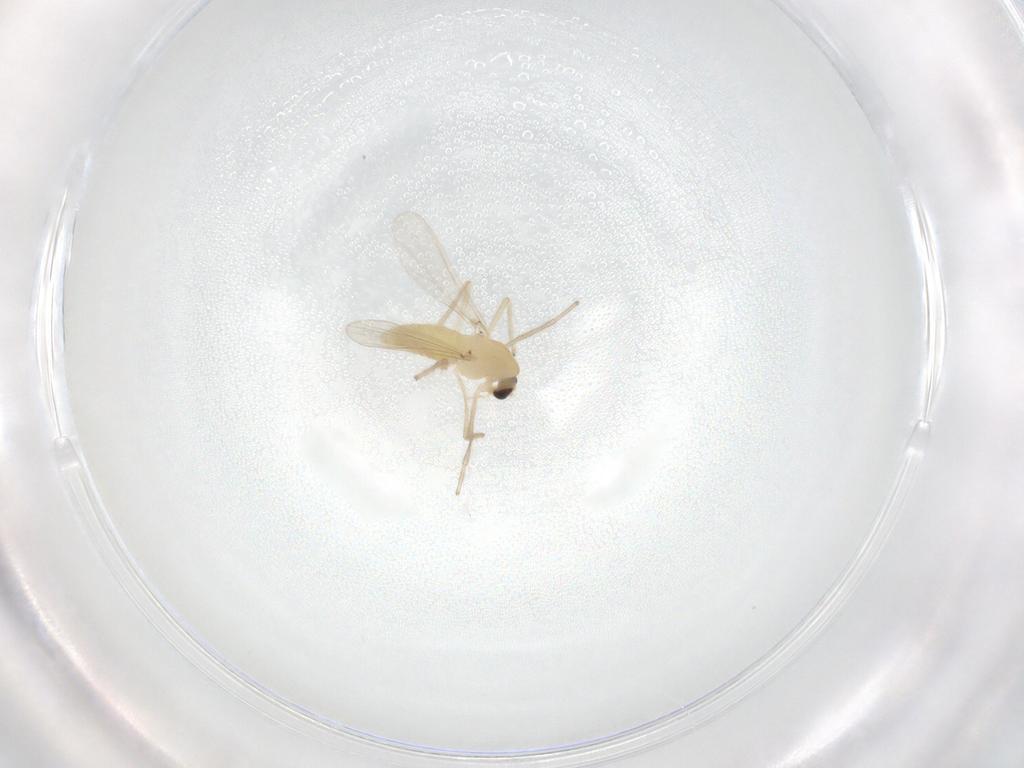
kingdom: Animalia
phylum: Arthropoda
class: Insecta
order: Diptera
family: Chironomidae
